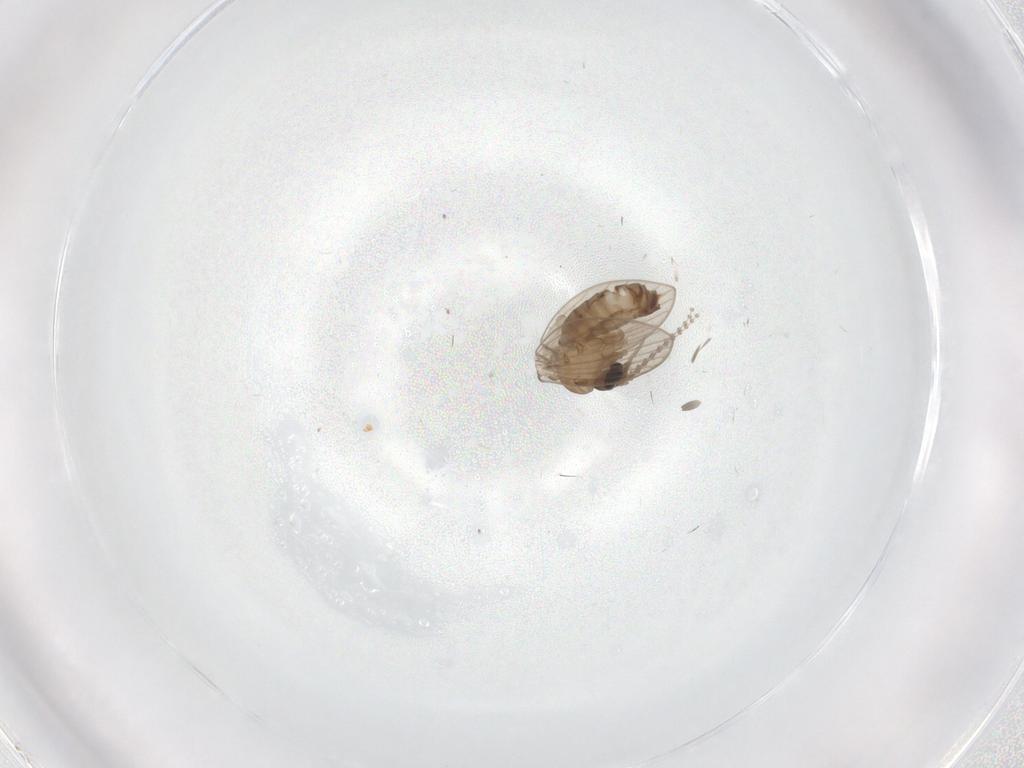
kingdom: Animalia
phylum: Arthropoda
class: Insecta
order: Diptera
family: Psychodidae
